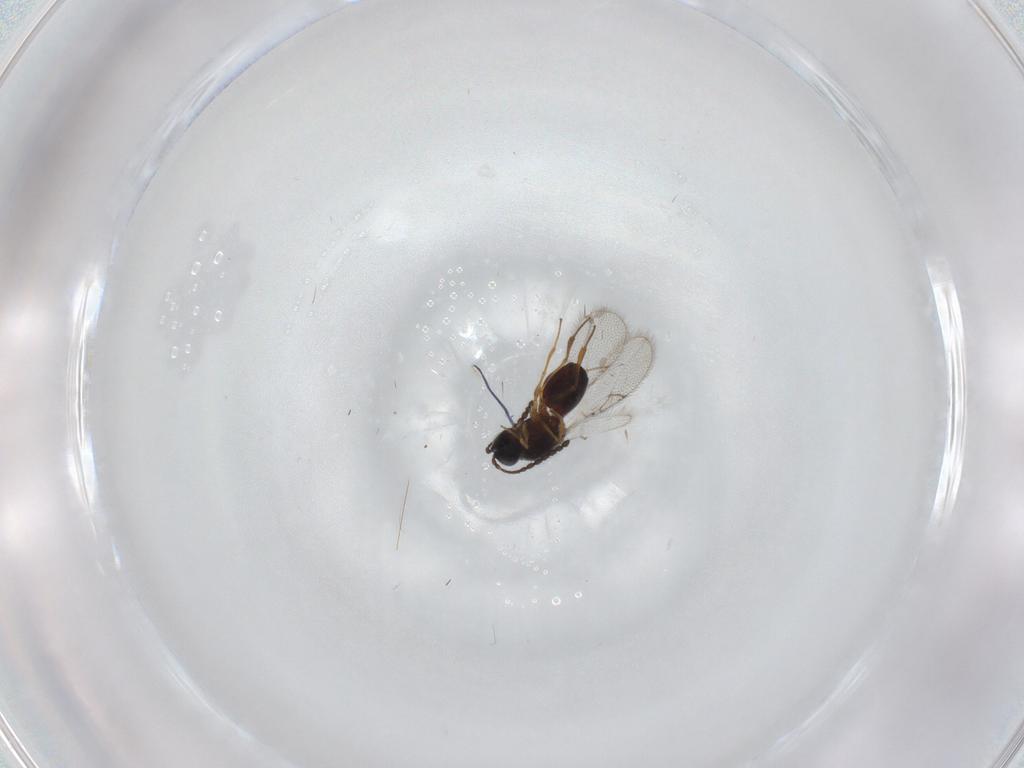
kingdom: Animalia
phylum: Arthropoda
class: Insecta
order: Hymenoptera
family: Figitidae
